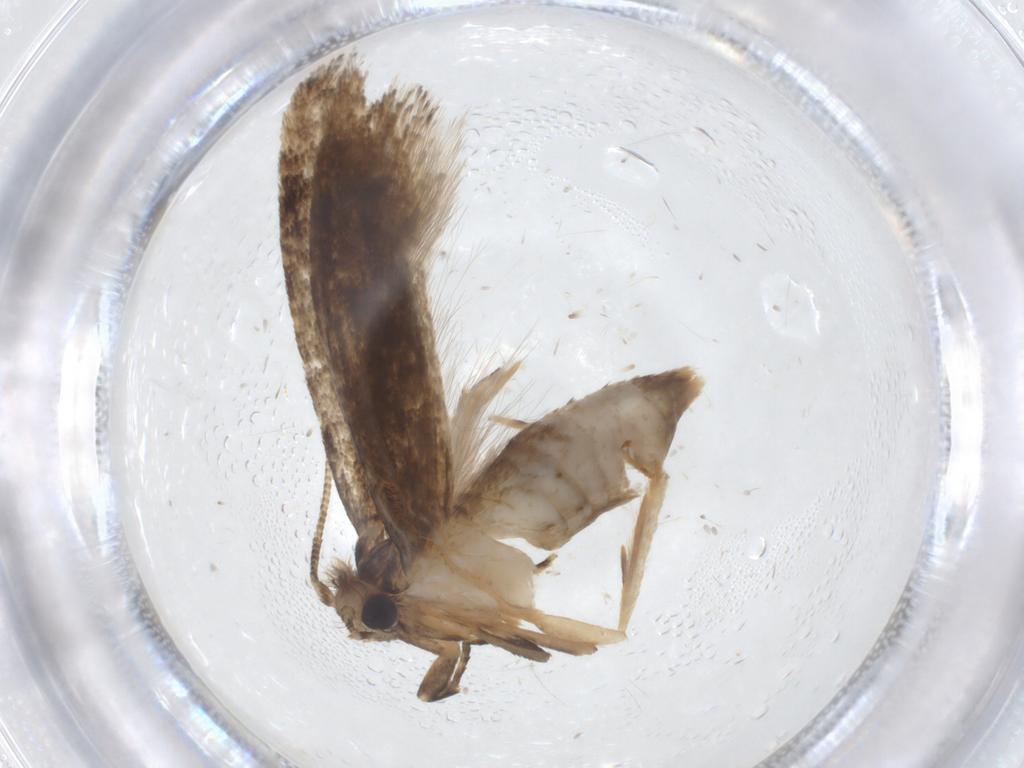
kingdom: Animalia
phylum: Arthropoda
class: Insecta
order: Lepidoptera
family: Tineidae
